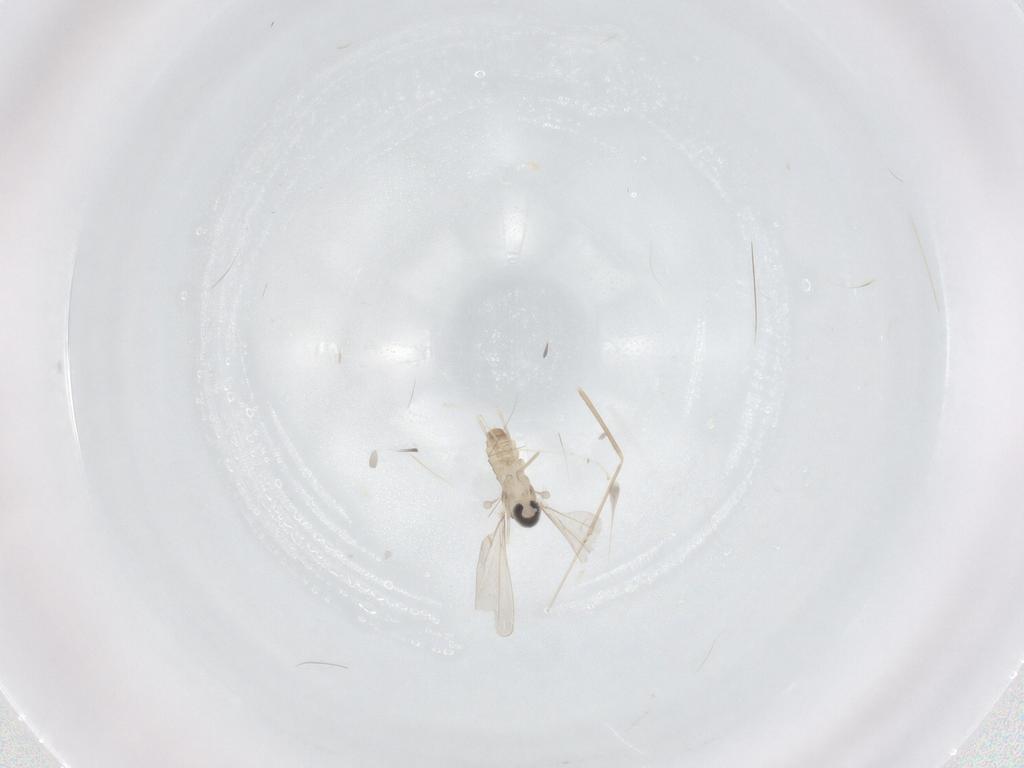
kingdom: Animalia
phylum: Arthropoda
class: Insecta
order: Diptera
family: Cecidomyiidae
